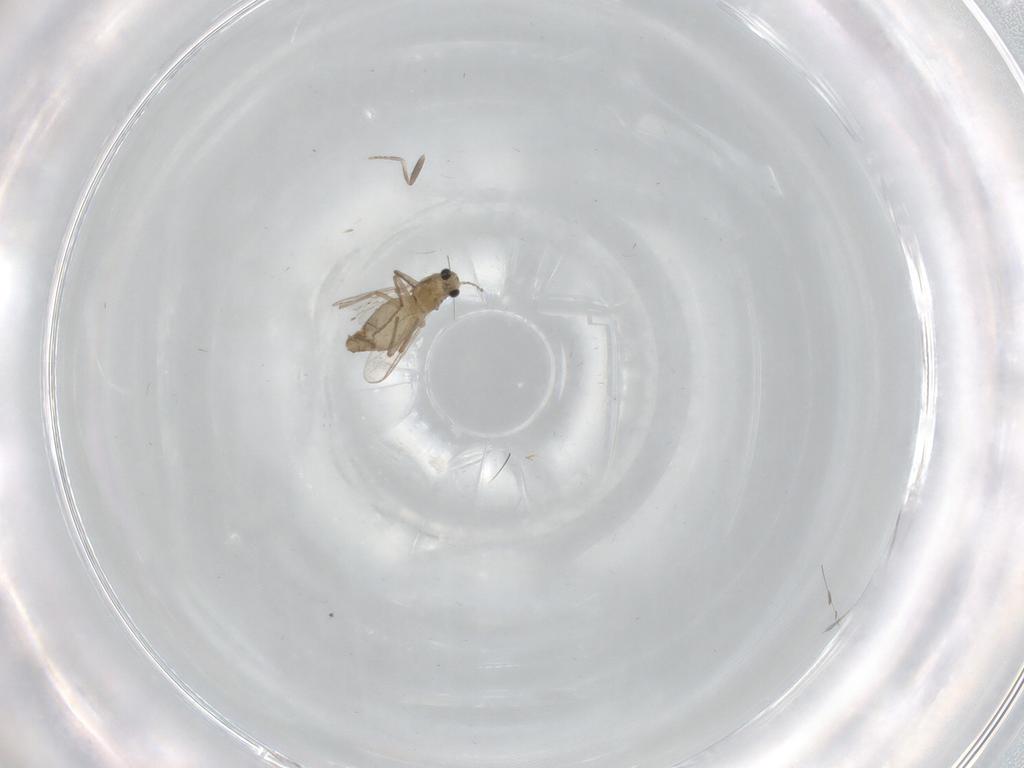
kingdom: Animalia
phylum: Arthropoda
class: Insecta
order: Diptera
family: Chironomidae
